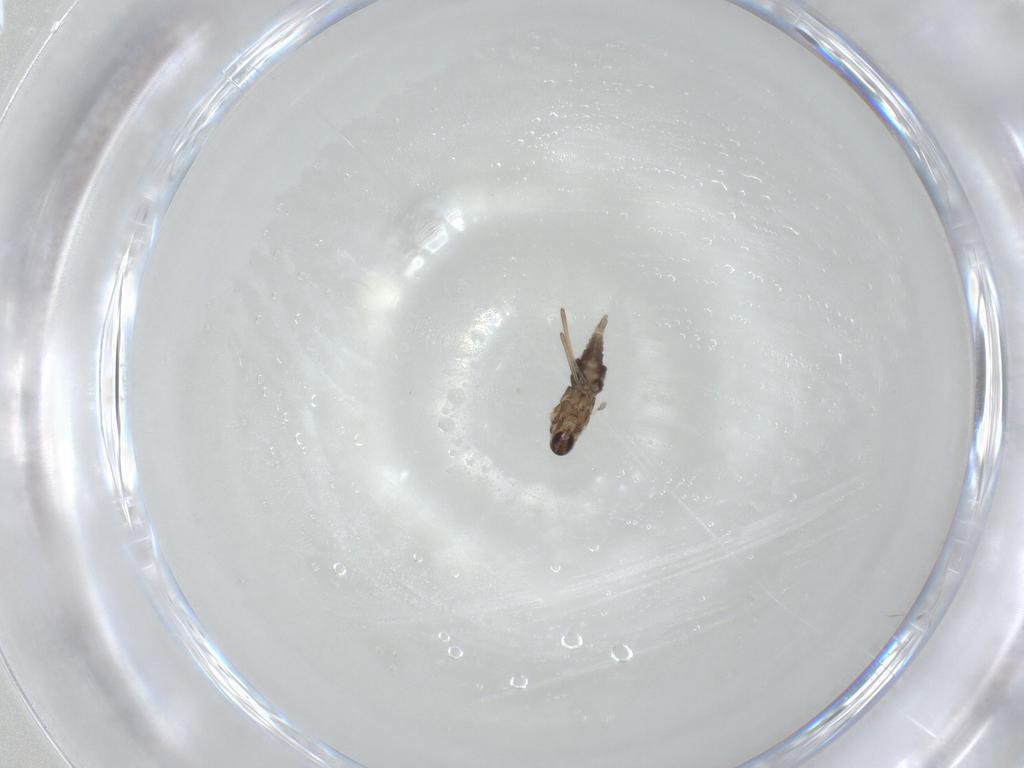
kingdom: Animalia
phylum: Arthropoda
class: Insecta
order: Diptera
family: Cecidomyiidae
